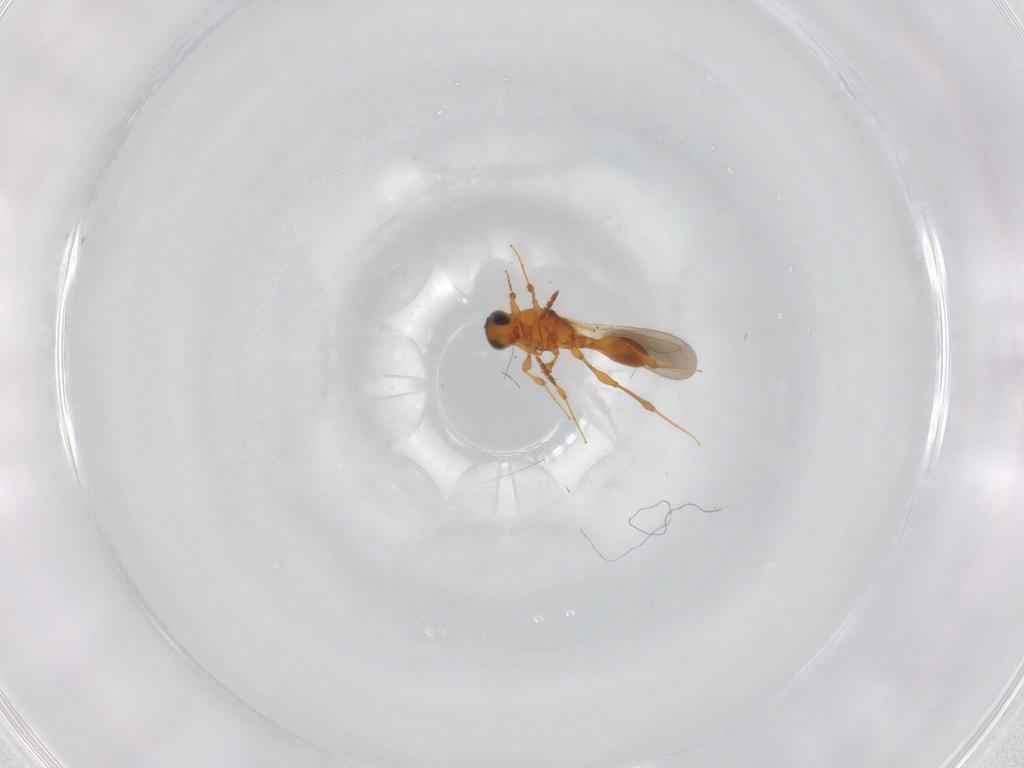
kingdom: Animalia
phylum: Arthropoda
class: Insecta
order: Hymenoptera
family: Platygastridae
